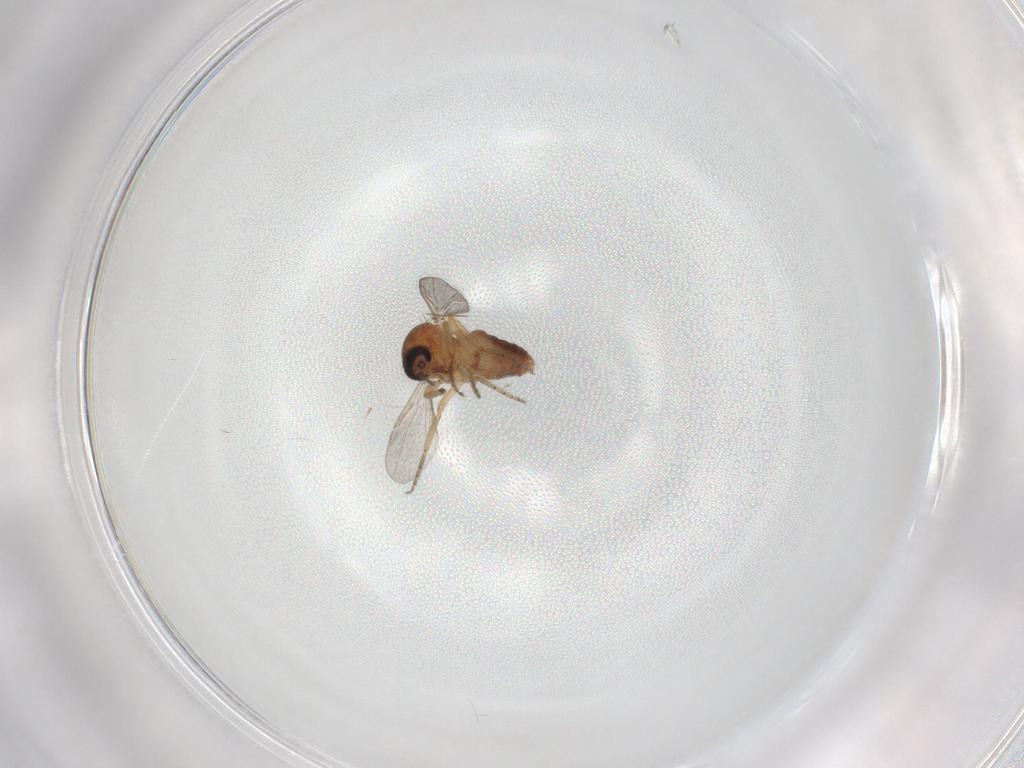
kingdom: Animalia
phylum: Arthropoda
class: Insecta
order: Diptera
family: Ceratopogonidae
